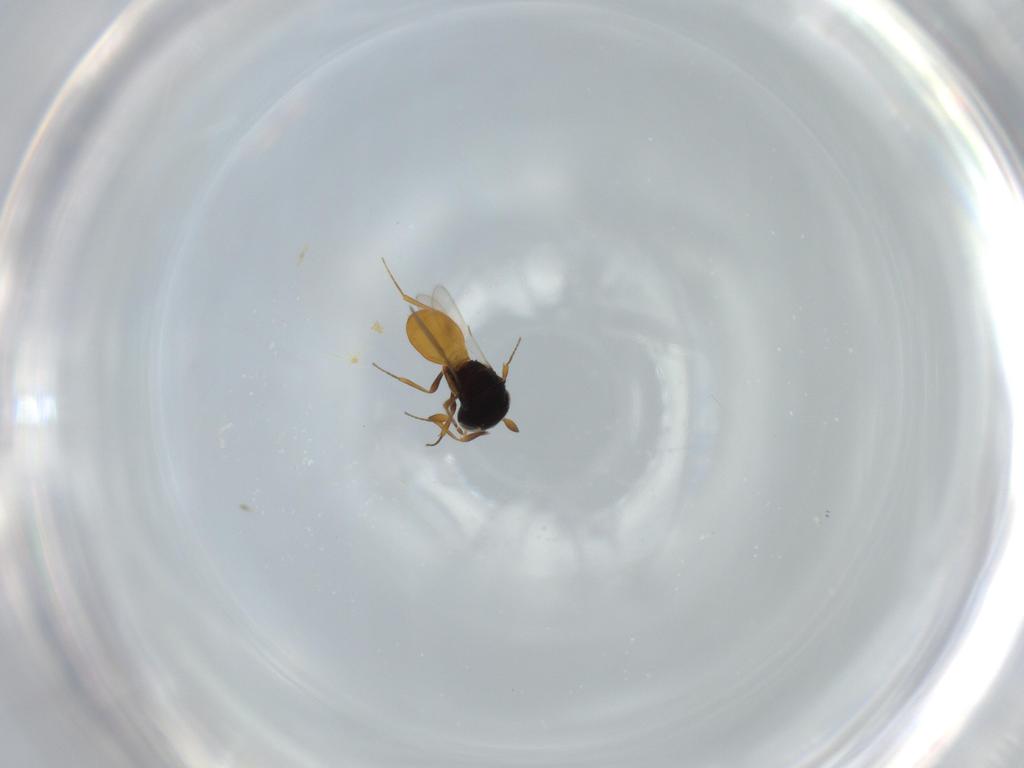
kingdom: Animalia
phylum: Arthropoda
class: Insecta
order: Hymenoptera
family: Scelionidae
